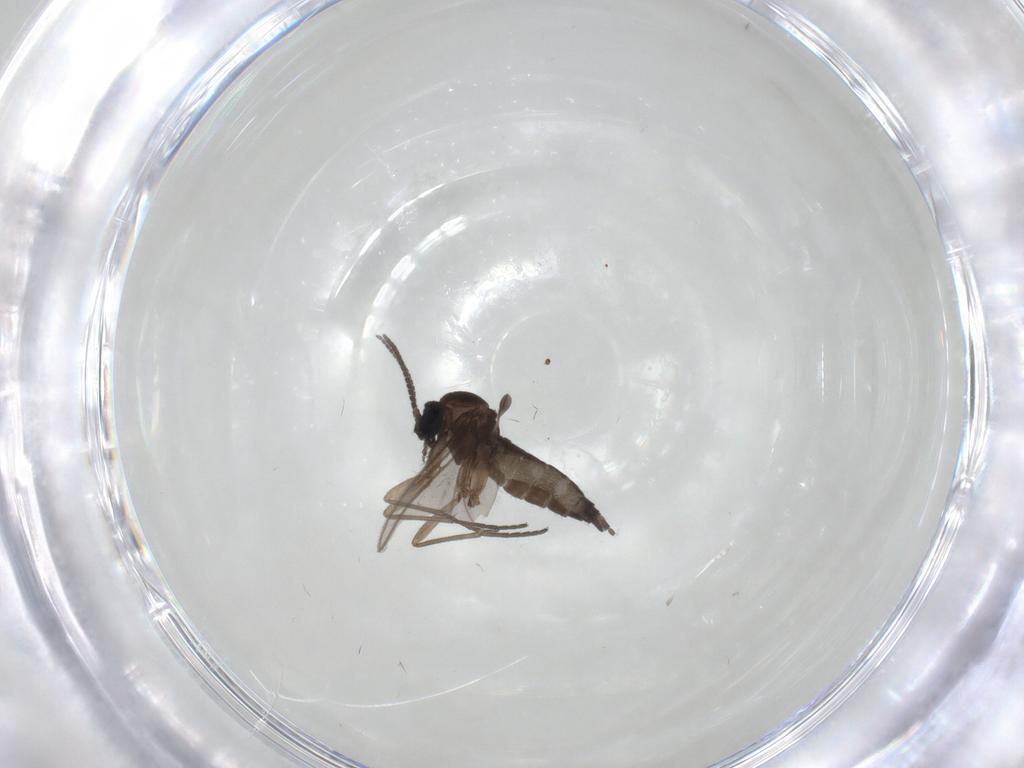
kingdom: Animalia
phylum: Arthropoda
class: Insecta
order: Diptera
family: Sciaridae
